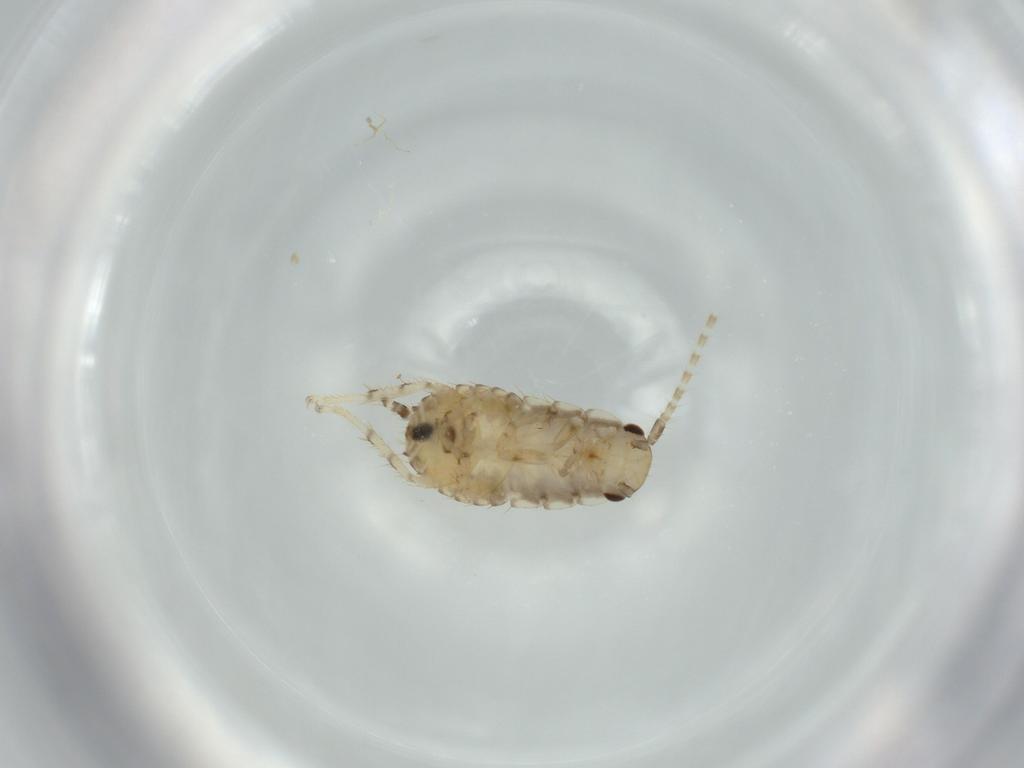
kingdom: Animalia
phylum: Arthropoda
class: Insecta
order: Blattodea
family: Ectobiidae
